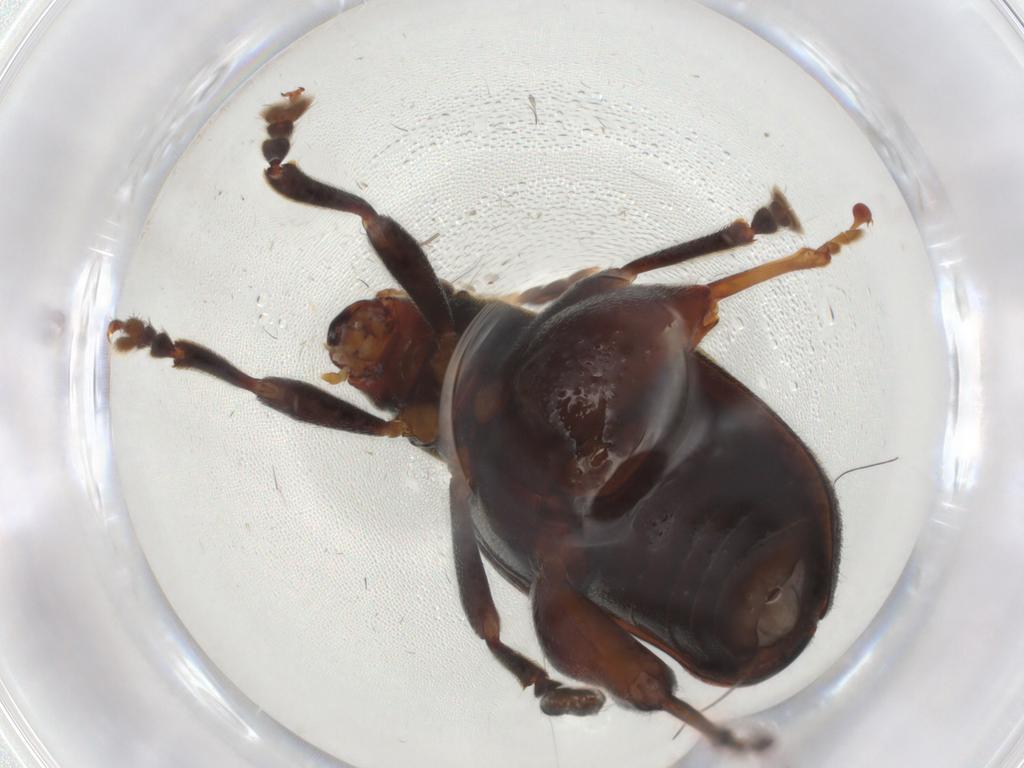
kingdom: Animalia
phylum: Arthropoda
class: Insecta
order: Coleoptera
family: Chrysomelidae
